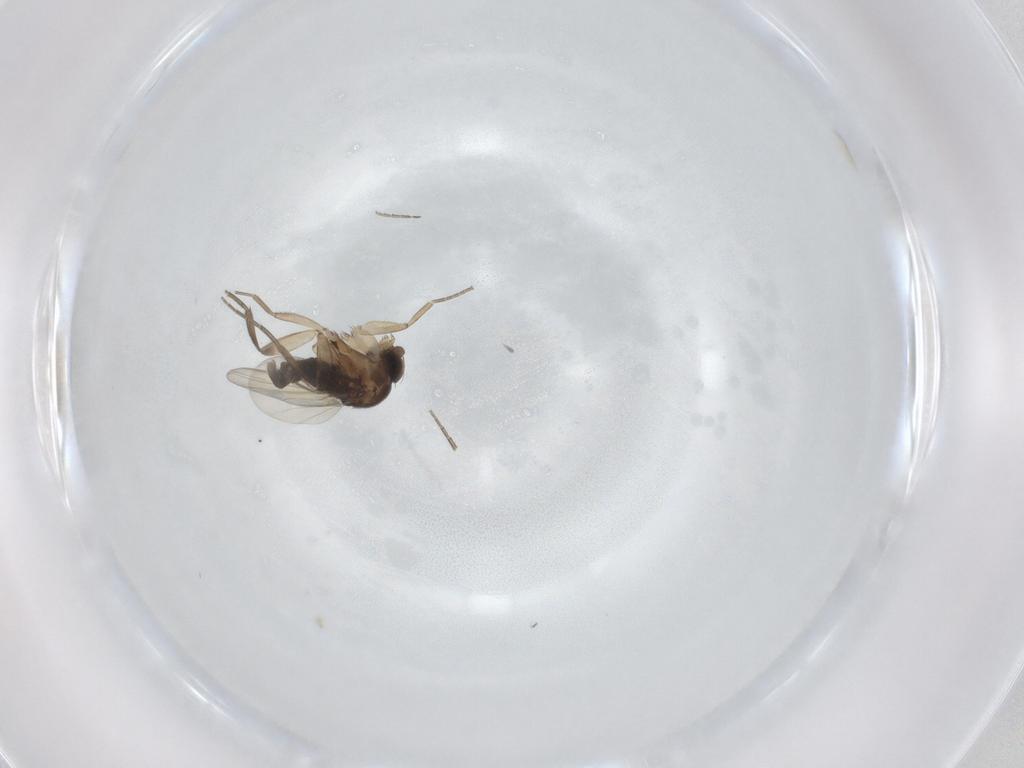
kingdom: Animalia
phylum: Arthropoda
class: Insecta
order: Diptera
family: Phoridae
